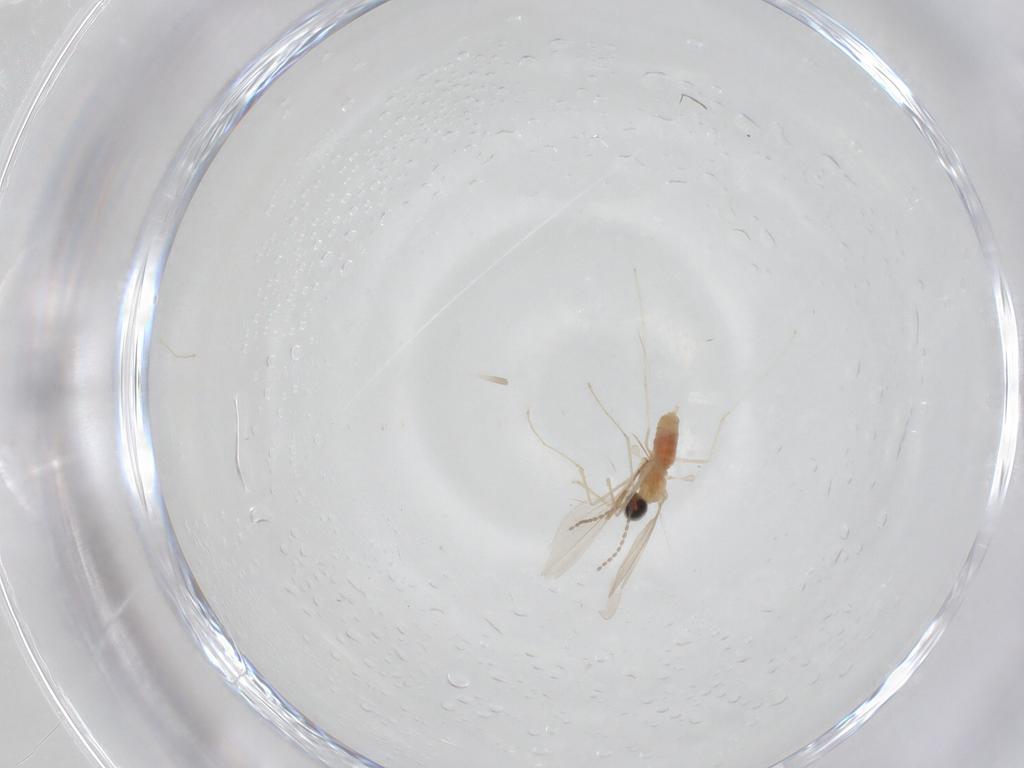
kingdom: Animalia
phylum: Arthropoda
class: Insecta
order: Diptera
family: Cecidomyiidae
